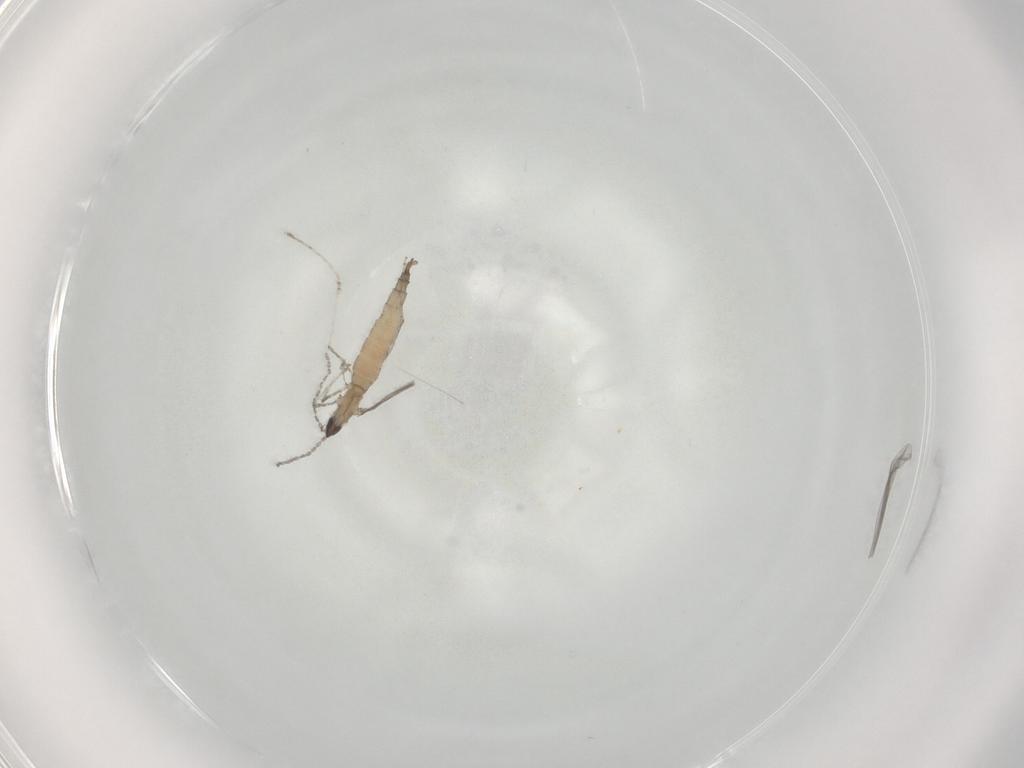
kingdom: Animalia
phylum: Arthropoda
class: Insecta
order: Diptera
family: Cecidomyiidae
